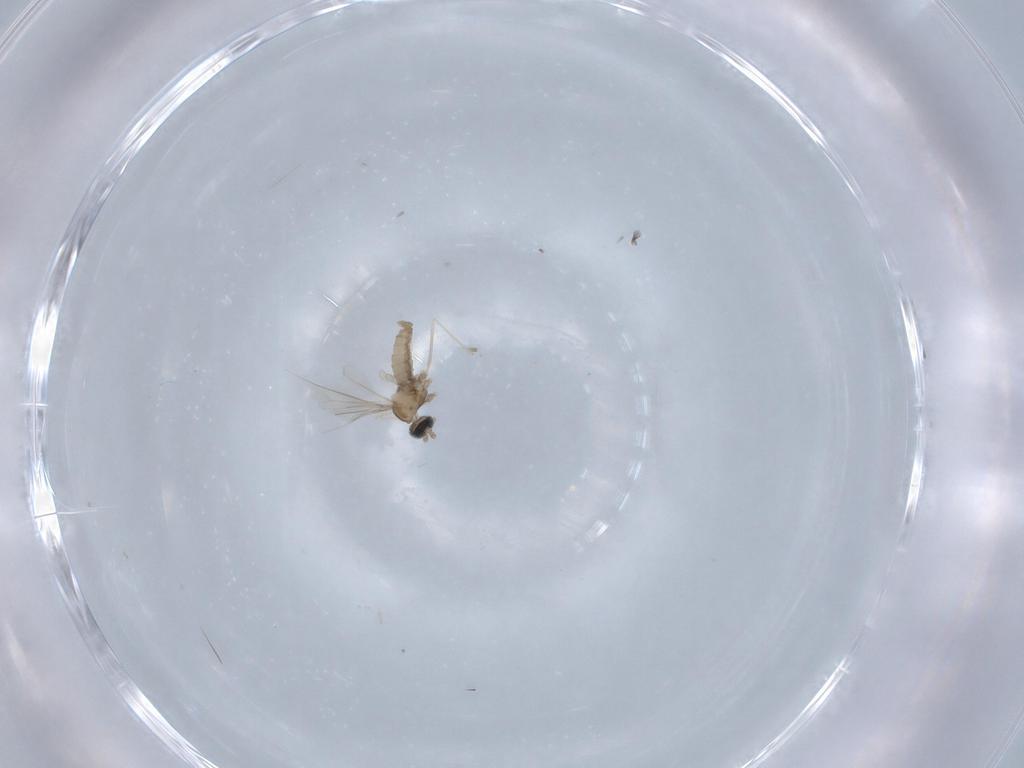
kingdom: Animalia
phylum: Arthropoda
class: Insecta
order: Diptera
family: Cecidomyiidae
